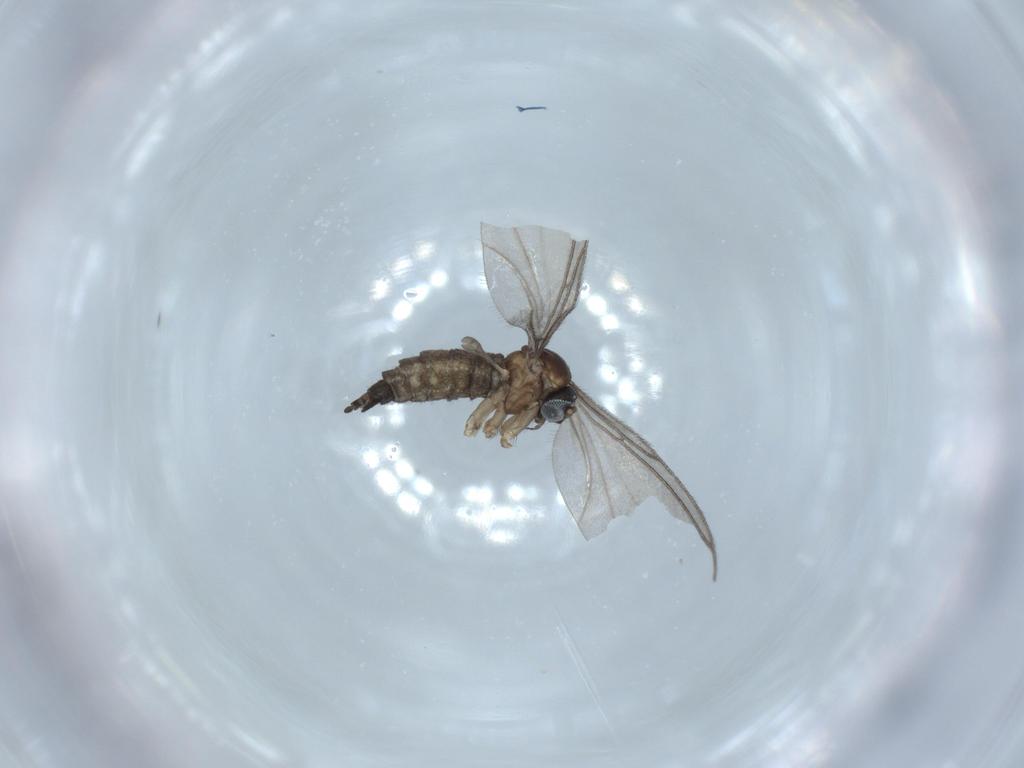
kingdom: Animalia
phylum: Arthropoda
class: Insecta
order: Diptera
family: Sciaridae
